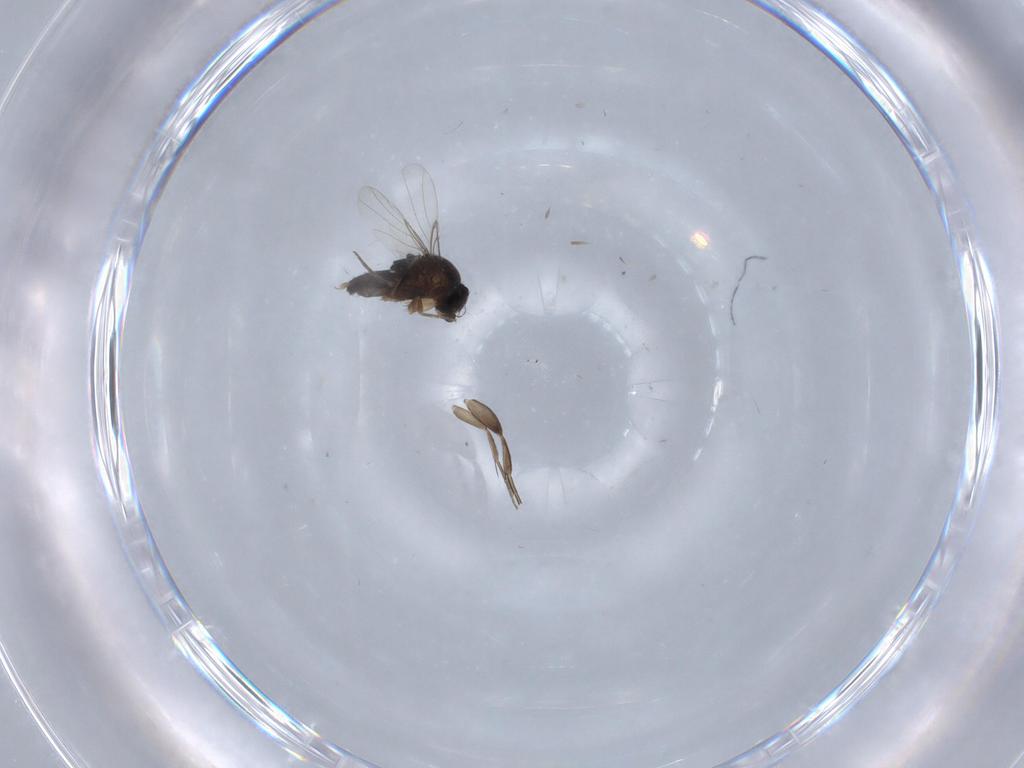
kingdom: Animalia
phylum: Arthropoda
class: Insecta
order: Diptera
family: Phoridae
